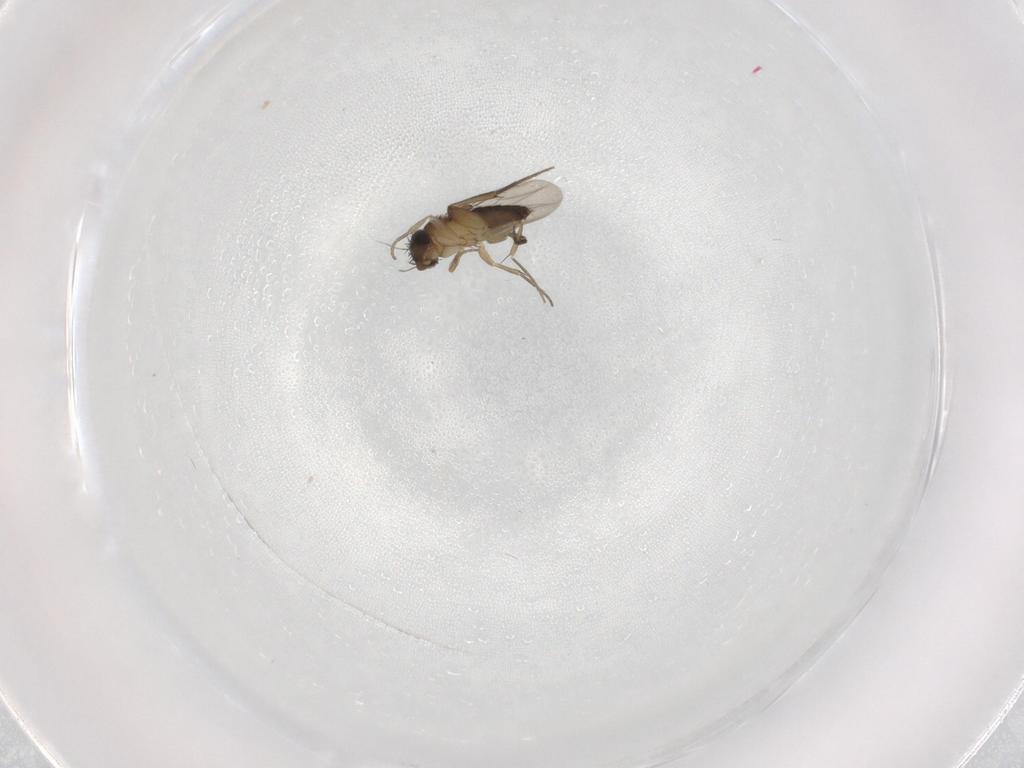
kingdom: Animalia
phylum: Arthropoda
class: Insecta
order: Diptera
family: Phoridae
